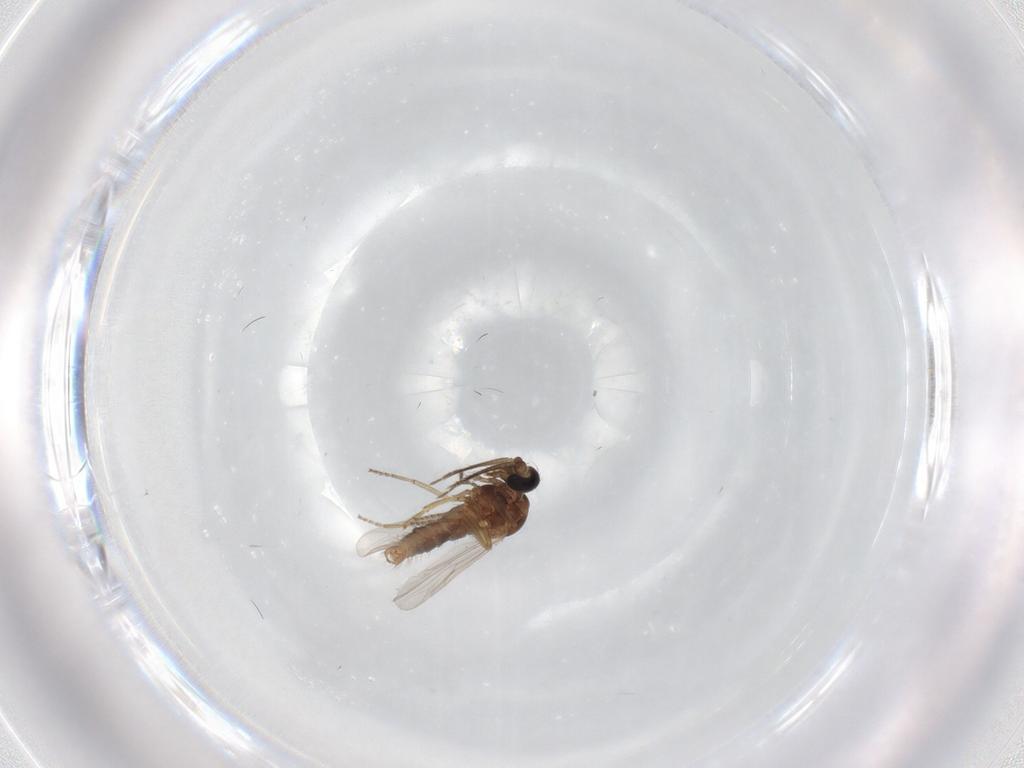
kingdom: Animalia
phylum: Arthropoda
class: Insecta
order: Diptera
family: Ceratopogonidae
